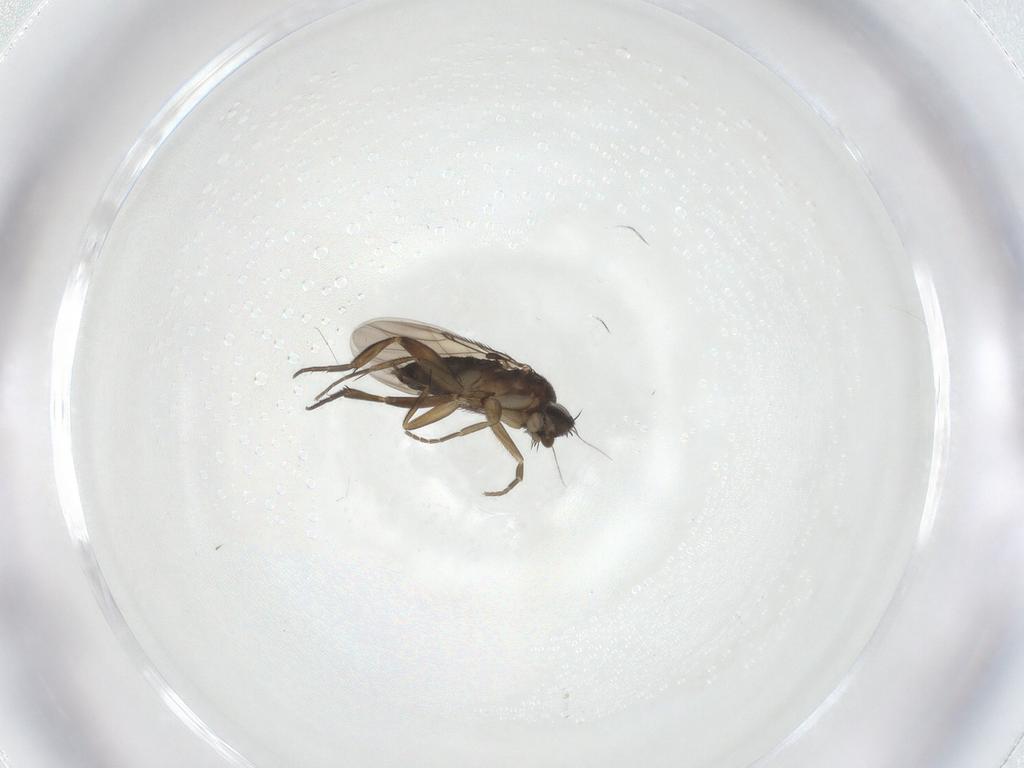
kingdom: Animalia
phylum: Arthropoda
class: Insecta
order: Diptera
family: Phoridae
